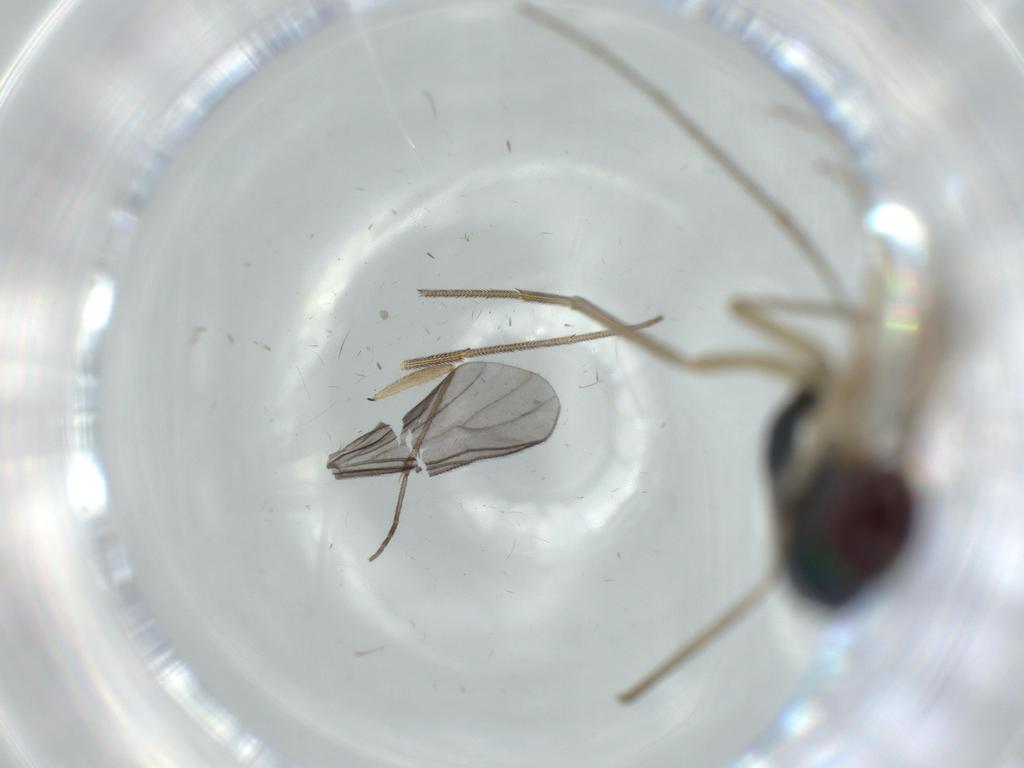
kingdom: Animalia
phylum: Arthropoda
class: Insecta
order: Diptera
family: Dolichopodidae
